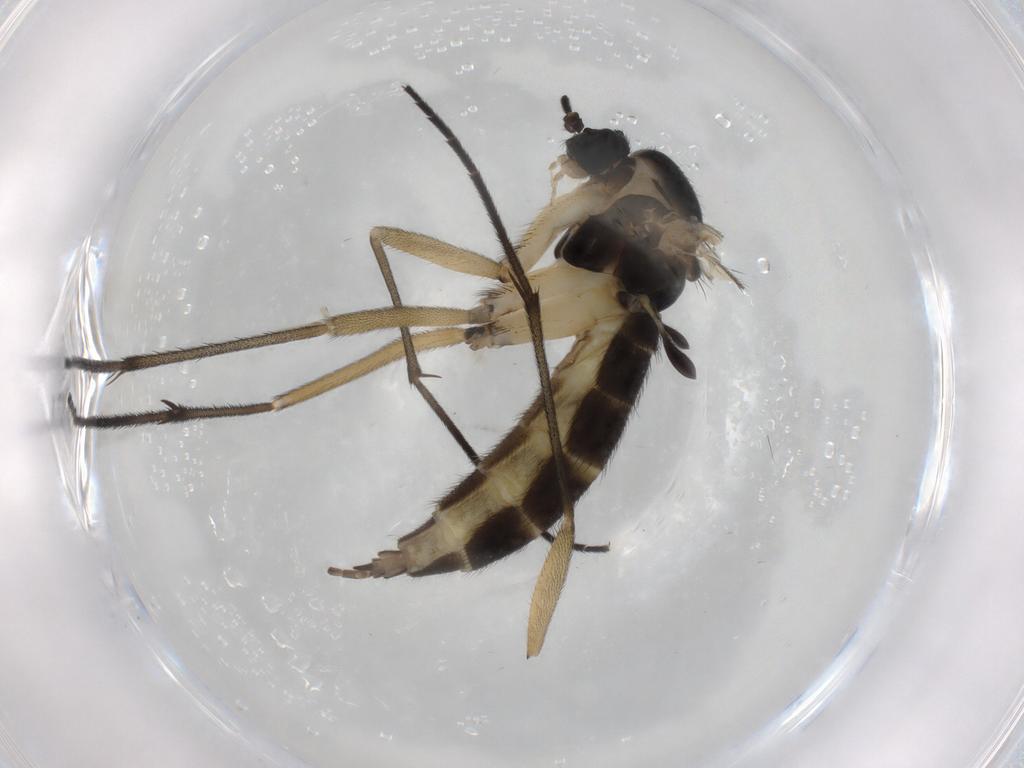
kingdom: Animalia
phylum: Arthropoda
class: Insecta
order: Diptera
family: Sciaridae
